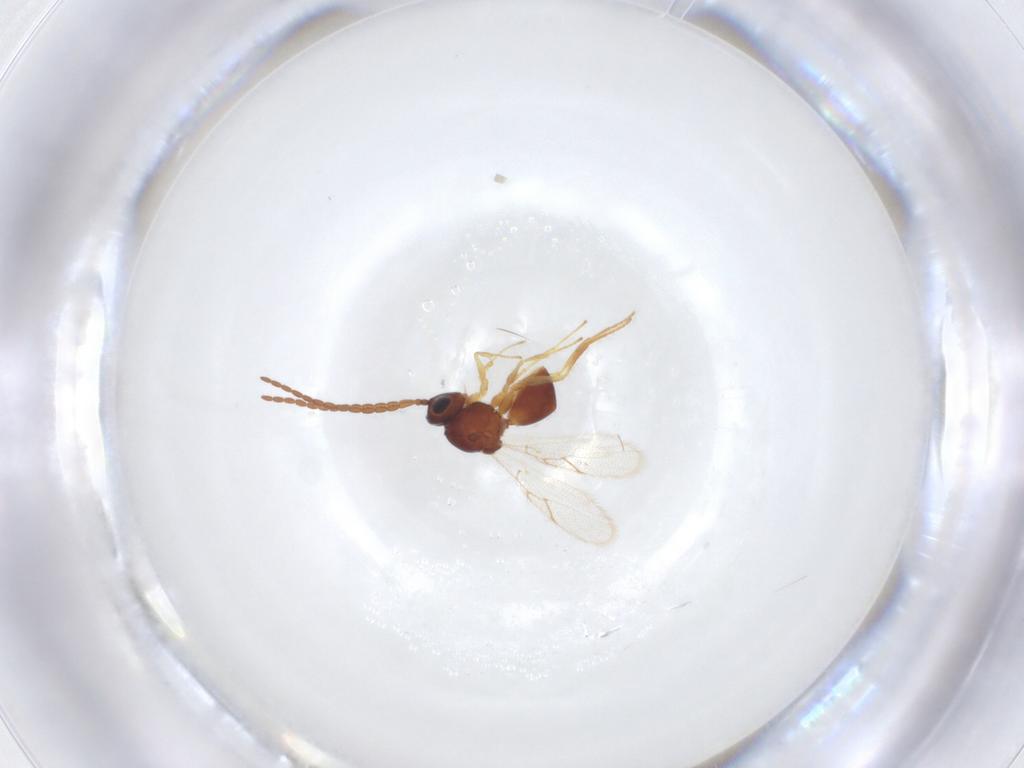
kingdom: Animalia
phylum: Arthropoda
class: Insecta
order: Hymenoptera
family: Figitidae
